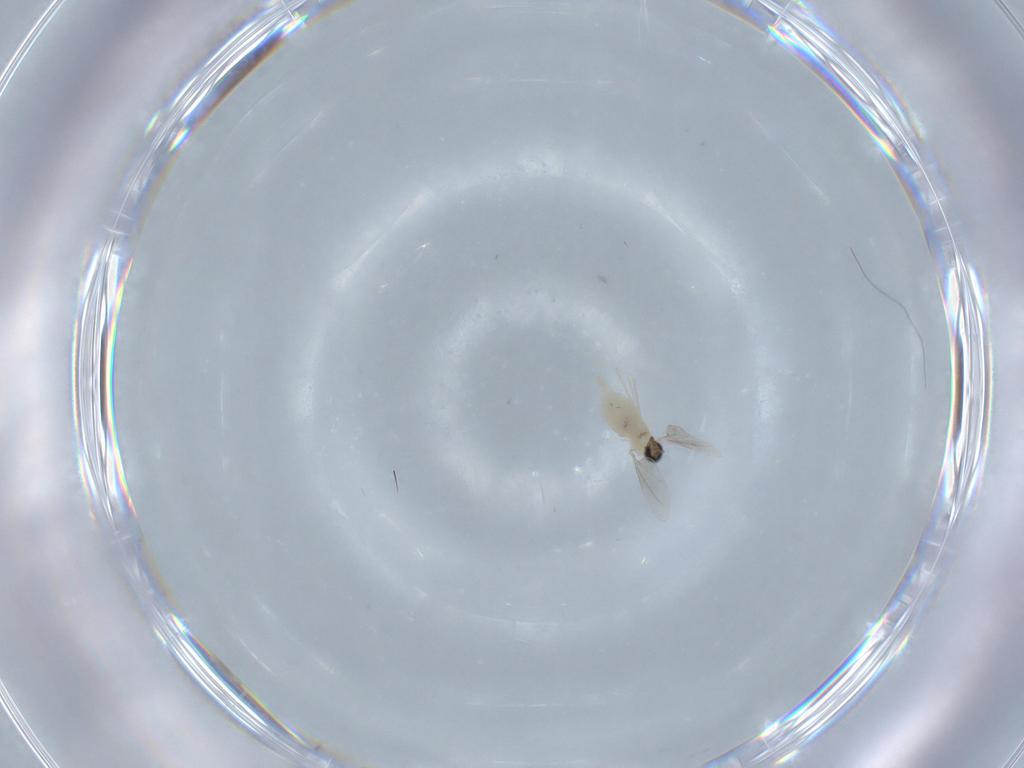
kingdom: Animalia
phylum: Arthropoda
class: Insecta
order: Diptera
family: Cecidomyiidae
